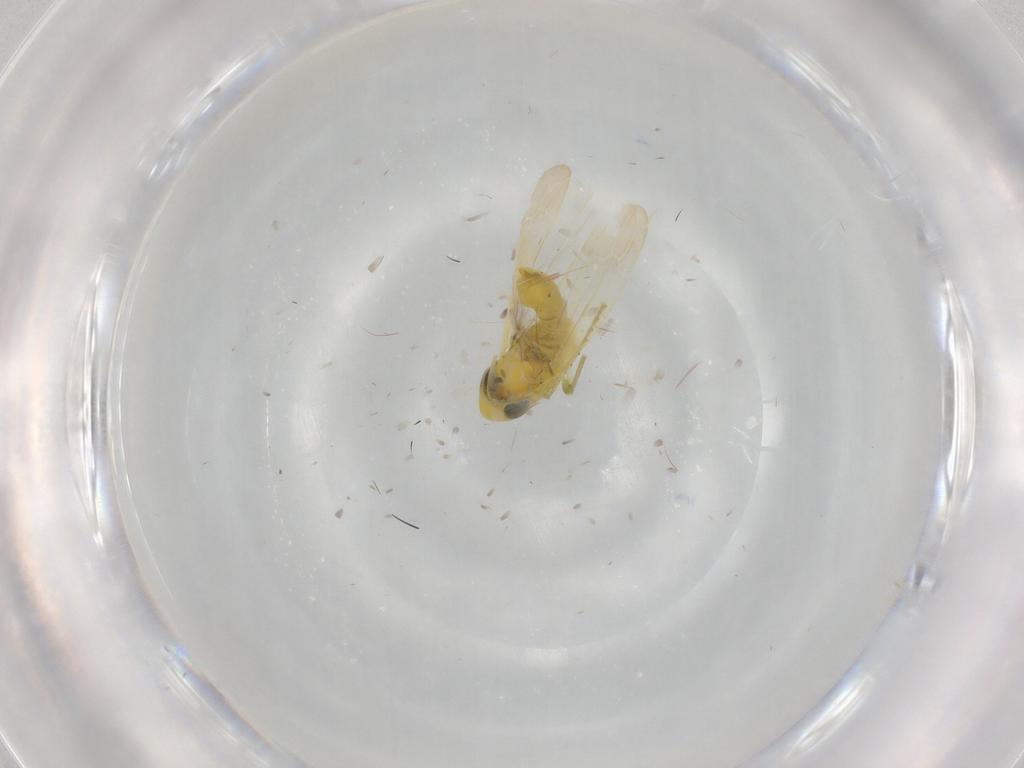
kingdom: Animalia
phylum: Arthropoda
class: Insecta
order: Hemiptera
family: Cicadellidae
